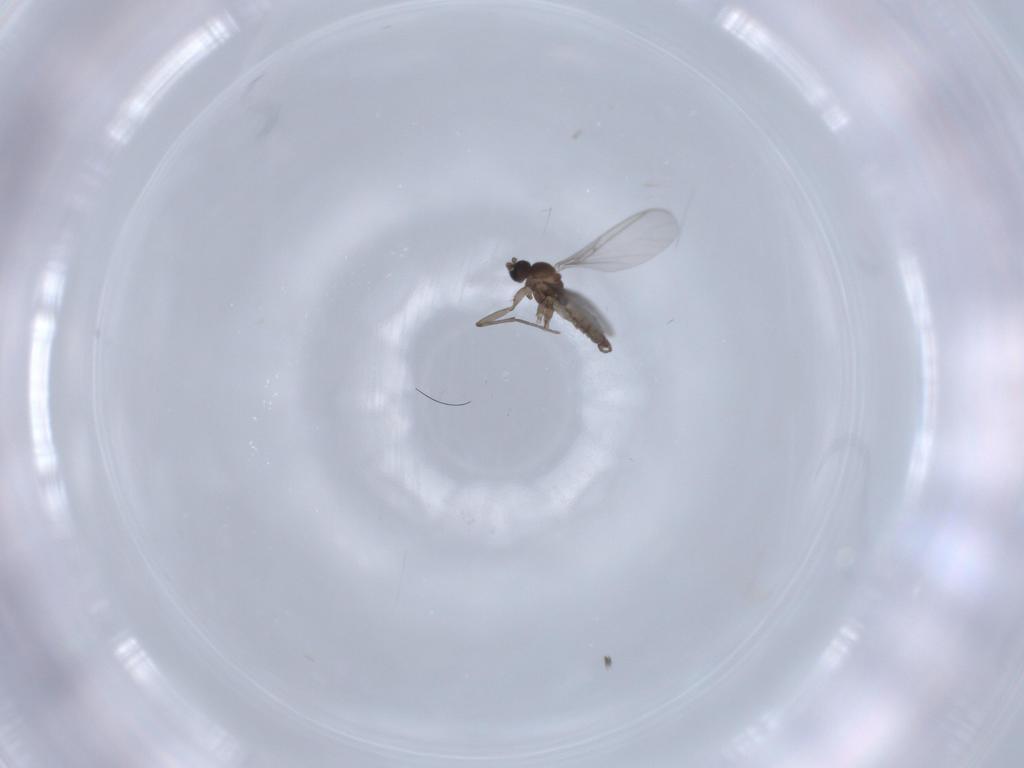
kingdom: Animalia
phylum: Arthropoda
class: Insecta
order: Diptera
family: Sciaridae
